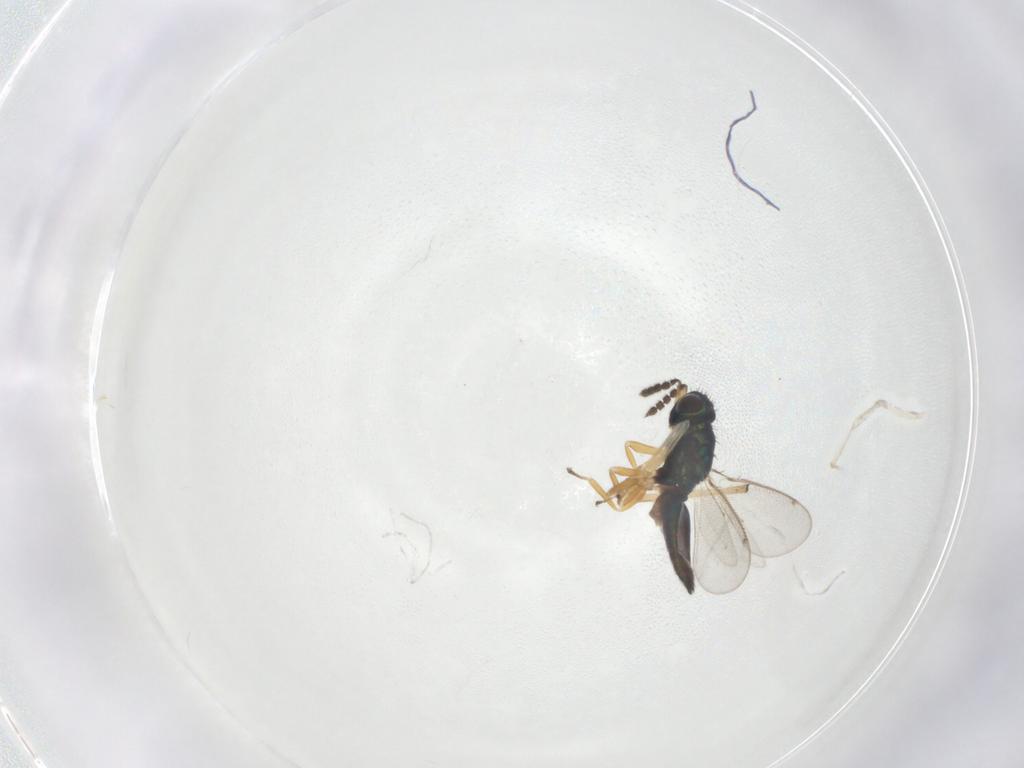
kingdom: Animalia
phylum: Arthropoda
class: Insecta
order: Hymenoptera
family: Eulophidae
